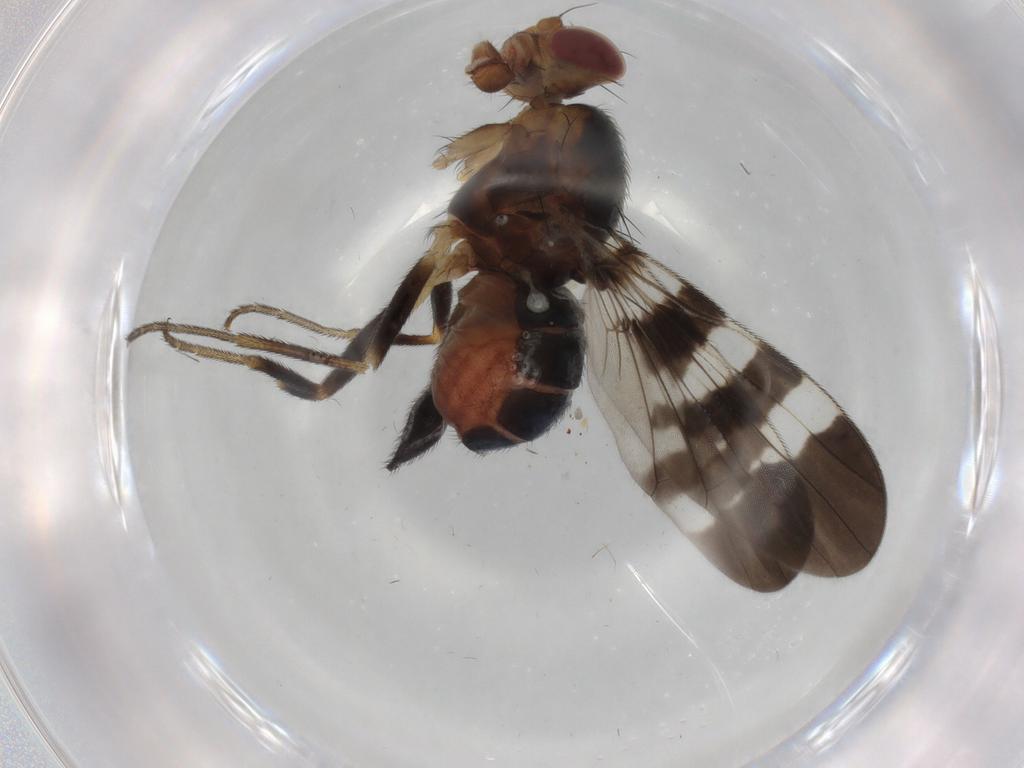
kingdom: Animalia
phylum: Arthropoda
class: Insecta
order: Diptera
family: Tephritidae
